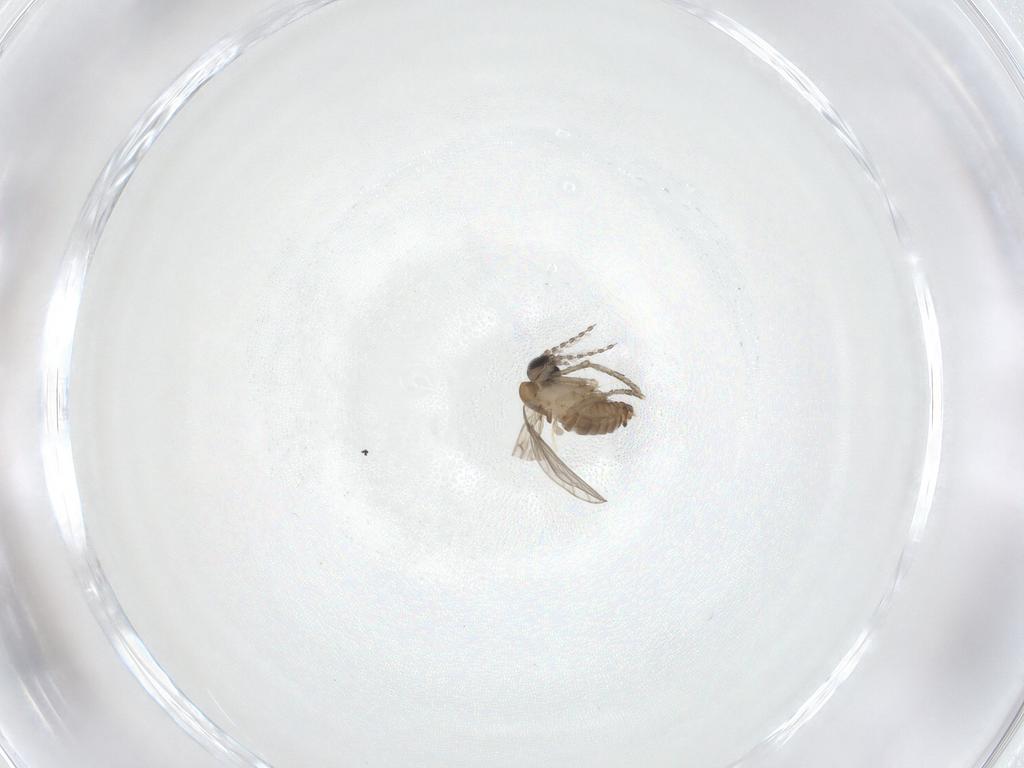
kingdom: Animalia
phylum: Arthropoda
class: Insecta
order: Diptera
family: Psychodidae
